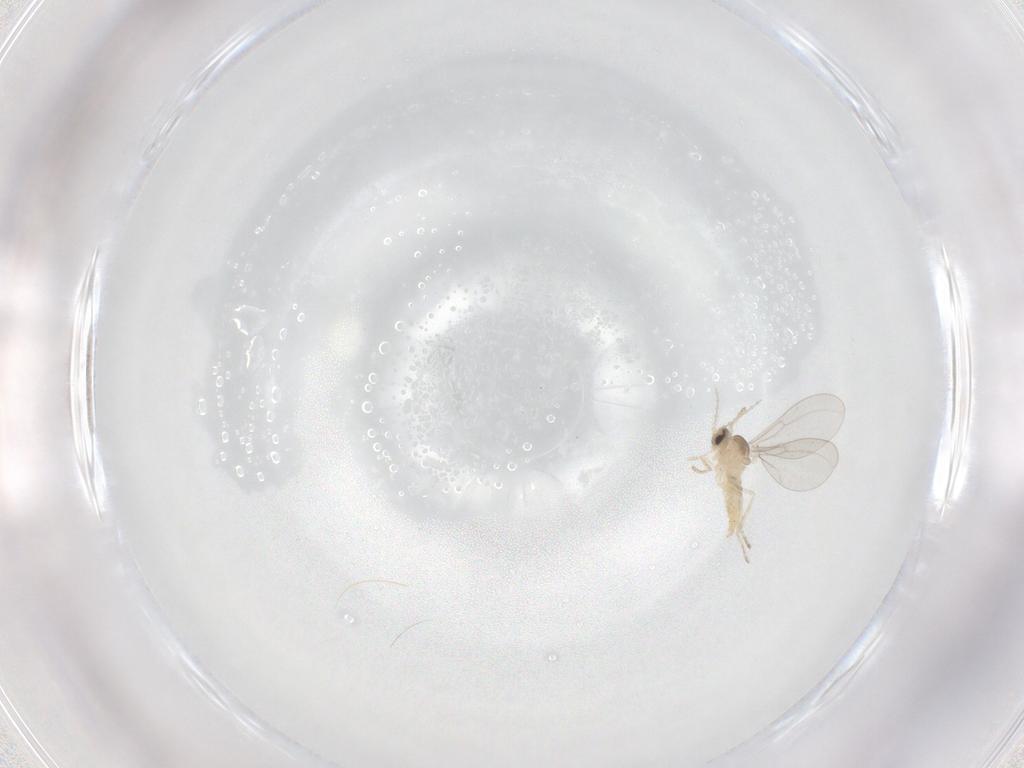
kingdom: Animalia
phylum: Arthropoda
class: Insecta
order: Diptera
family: Cecidomyiidae
